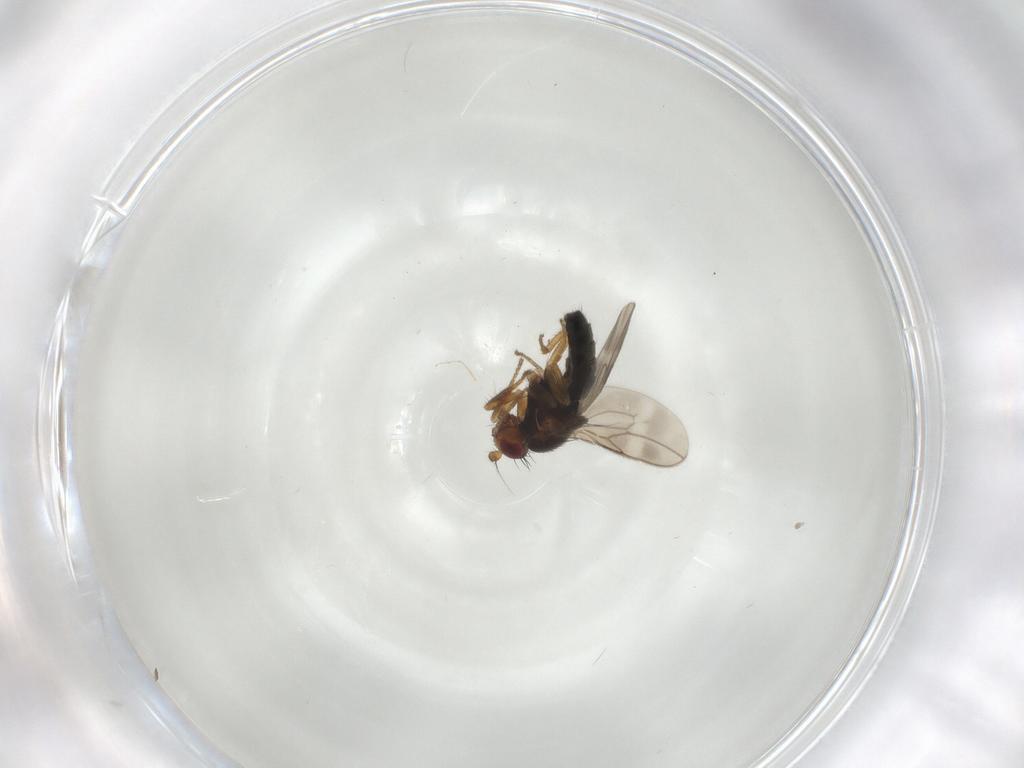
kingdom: Animalia
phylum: Arthropoda
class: Insecta
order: Diptera
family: Sphaeroceridae
